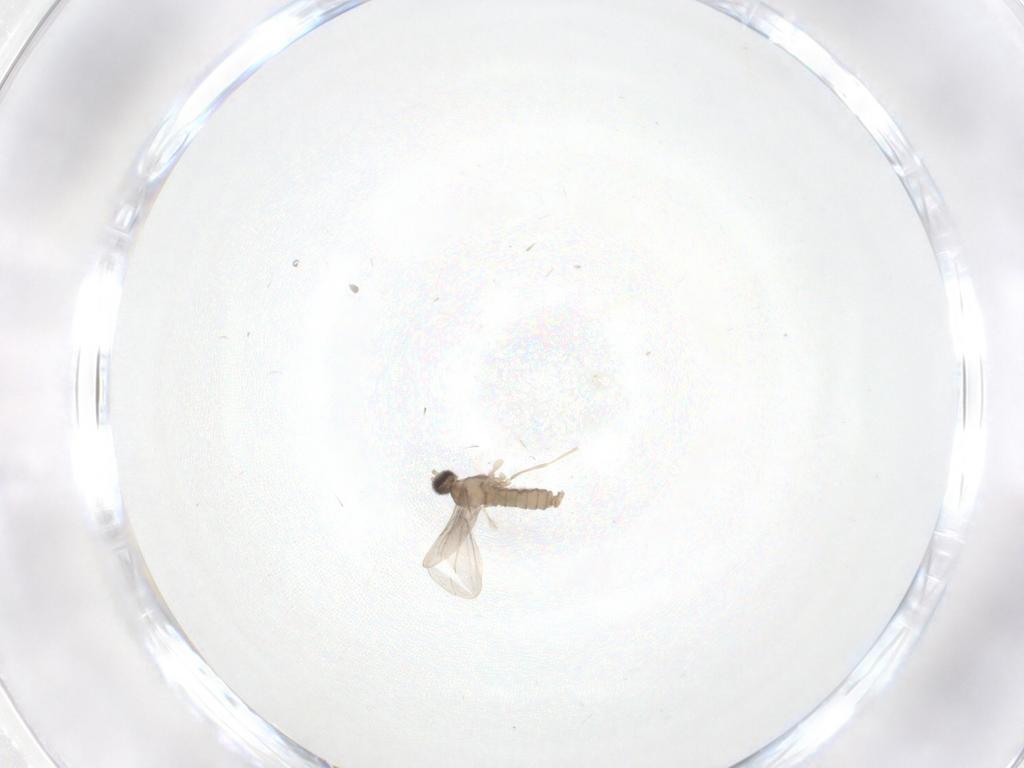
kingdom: Animalia
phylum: Arthropoda
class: Insecta
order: Diptera
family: Cecidomyiidae
